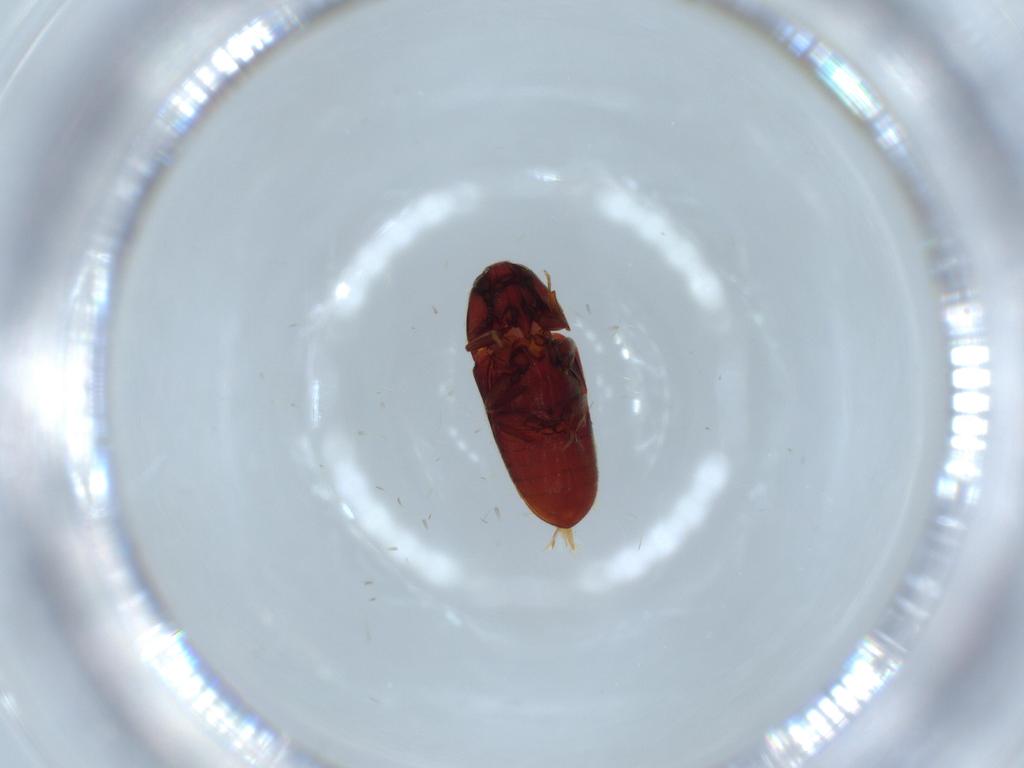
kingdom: Animalia
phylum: Arthropoda
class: Insecta
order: Coleoptera
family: Throscidae
